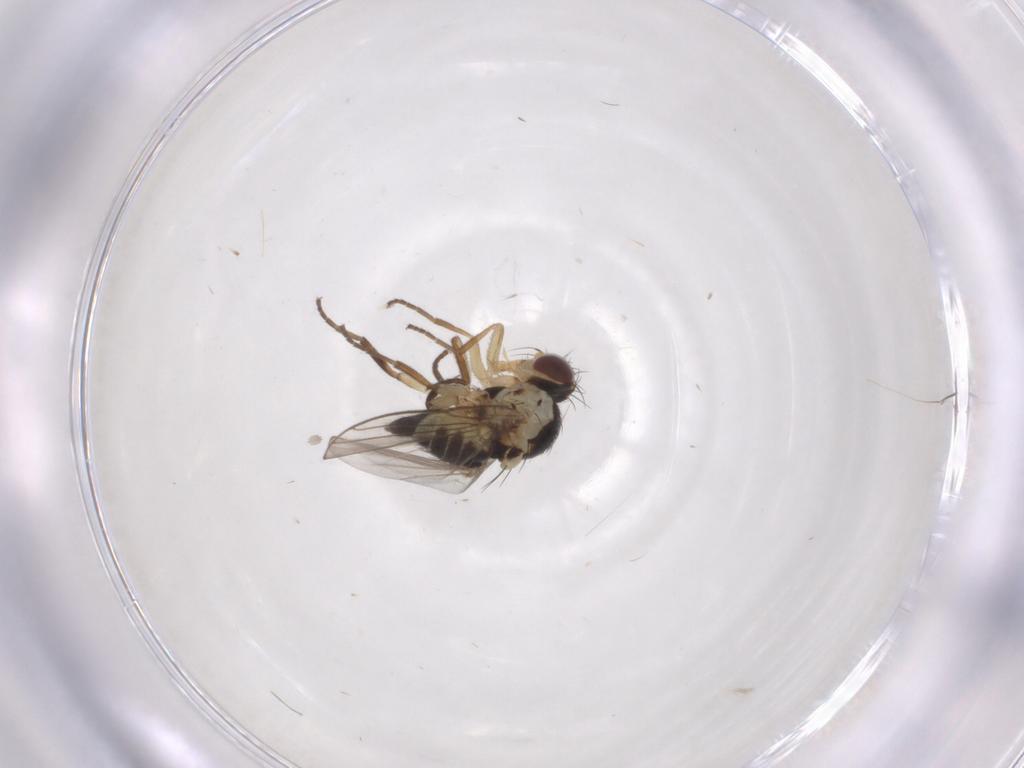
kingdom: Animalia
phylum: Arthropoda
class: Insecta
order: Diptera
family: Agromyzidae
